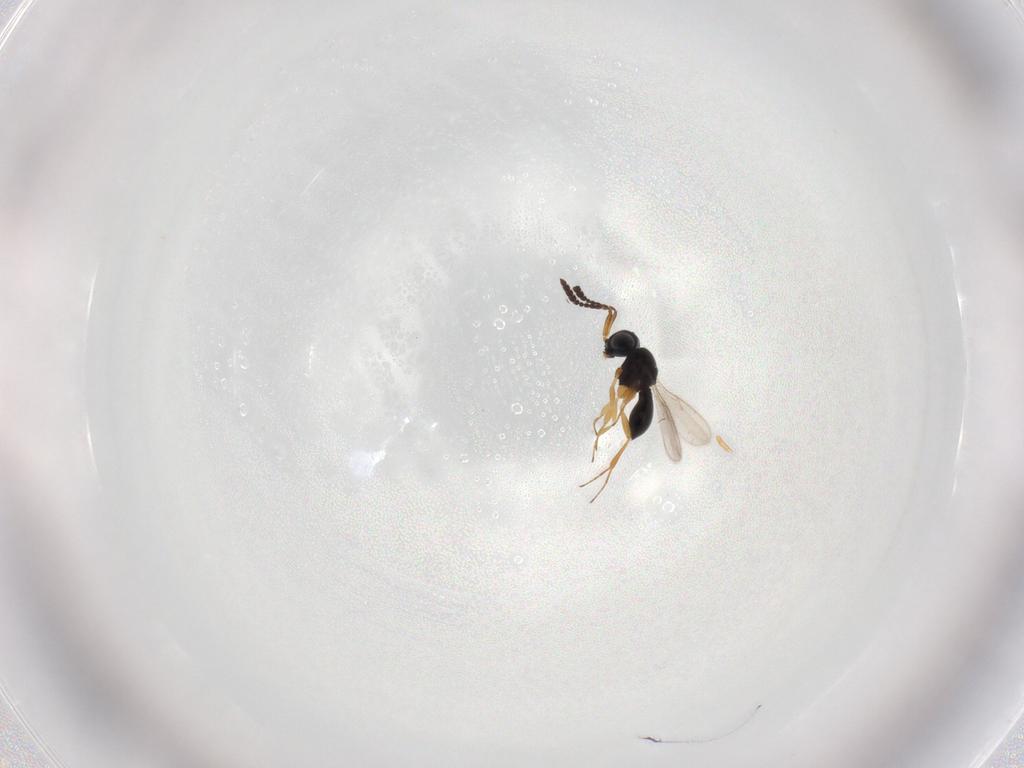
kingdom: Animalia
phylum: Arthropoda
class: Insecta
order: Hymenoptera
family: Scelionidae
